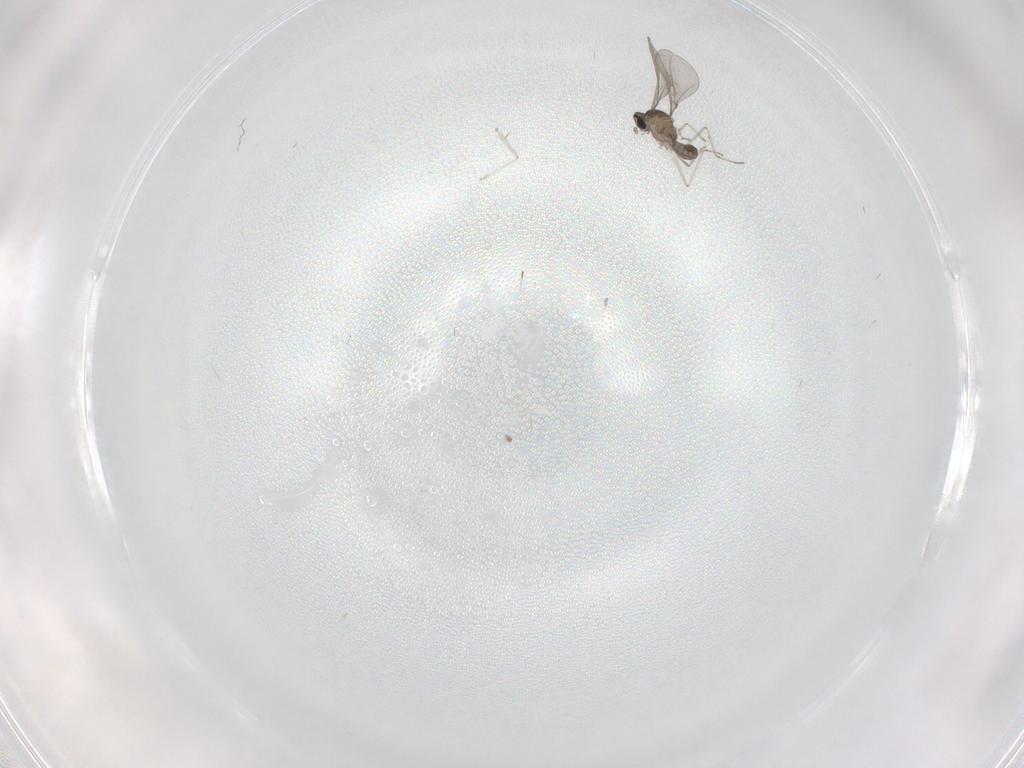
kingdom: Animalia
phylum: Arthropoda
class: Insecta
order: Diptera
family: Chironomidae
